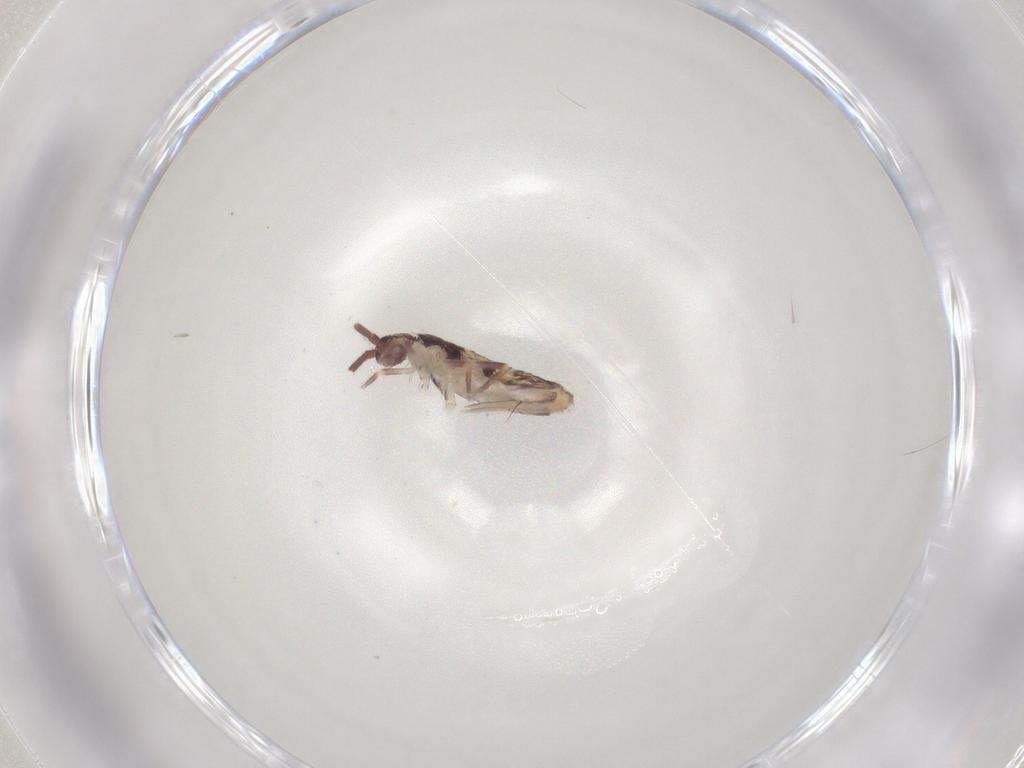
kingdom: Animalia
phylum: Arthropoda
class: Collembola
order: Entomobryomorpha
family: Entomobryidae
